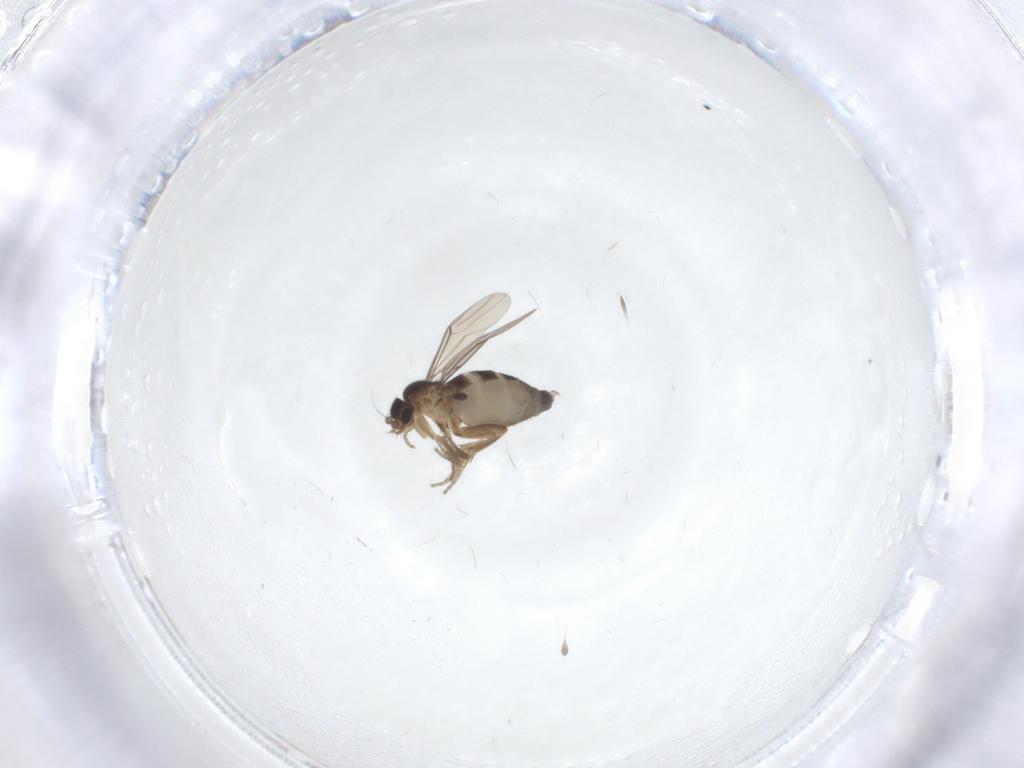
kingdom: Animalia
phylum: Arthropoda
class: Insecta
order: Diptera
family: Phoridae
